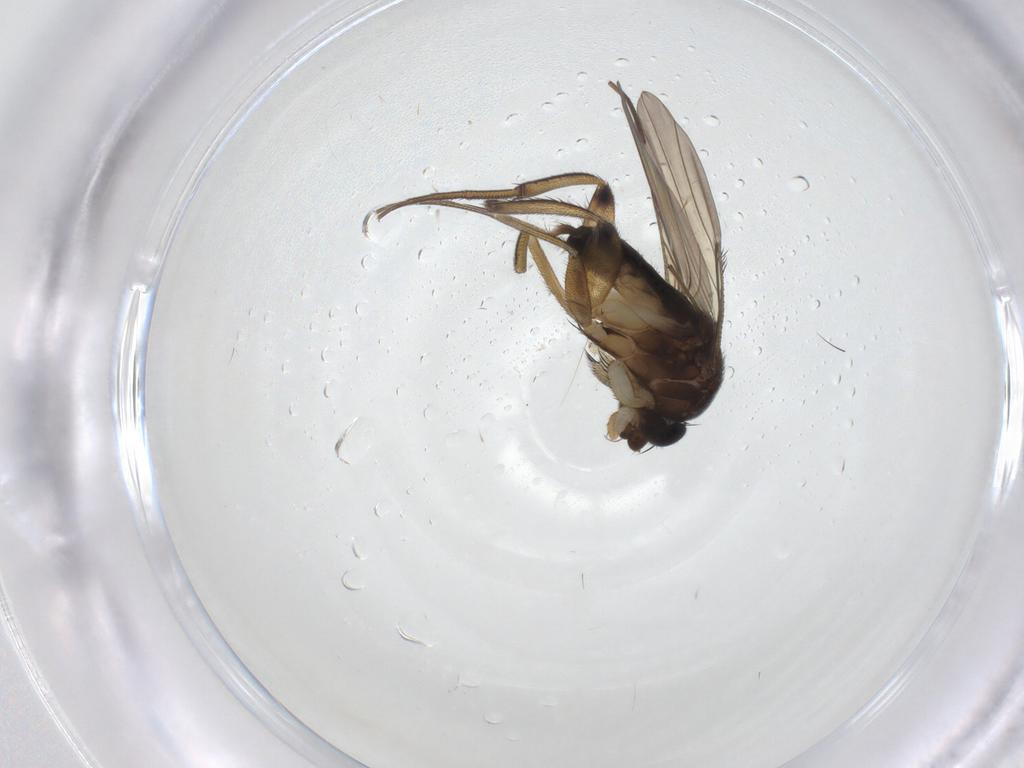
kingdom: Animalia
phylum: Arthropoda
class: Insecta
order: Diptera
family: Phoridae
